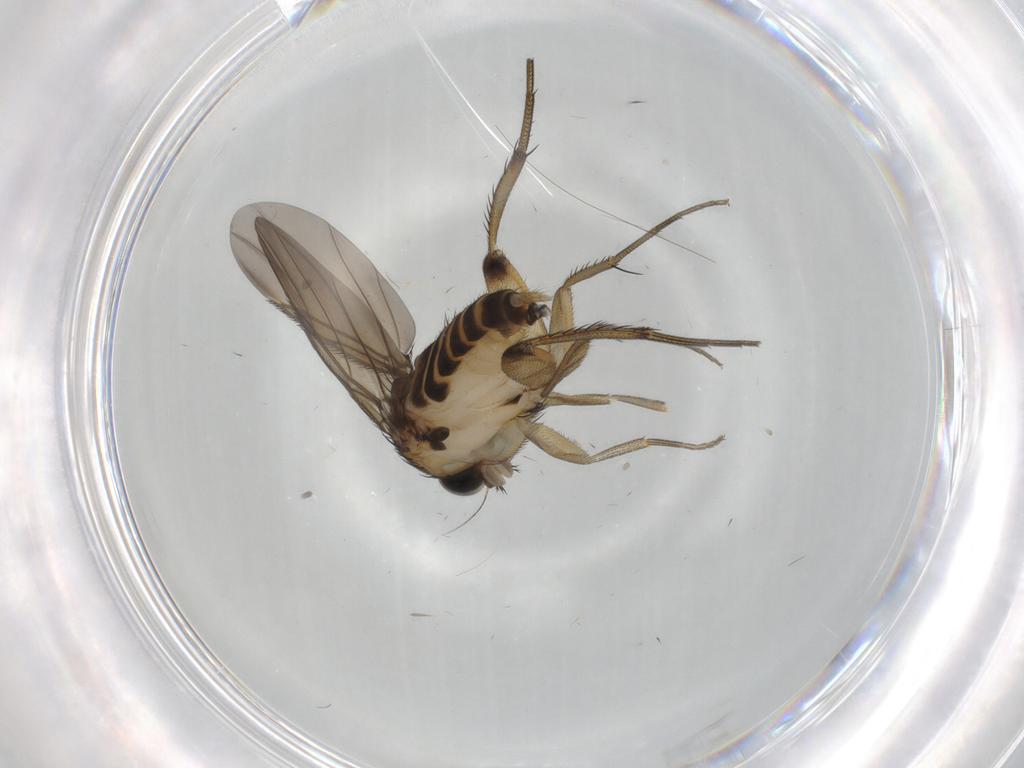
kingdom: Animalia
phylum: Arthropoda
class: Insecta
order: Diptera
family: Phoridae
